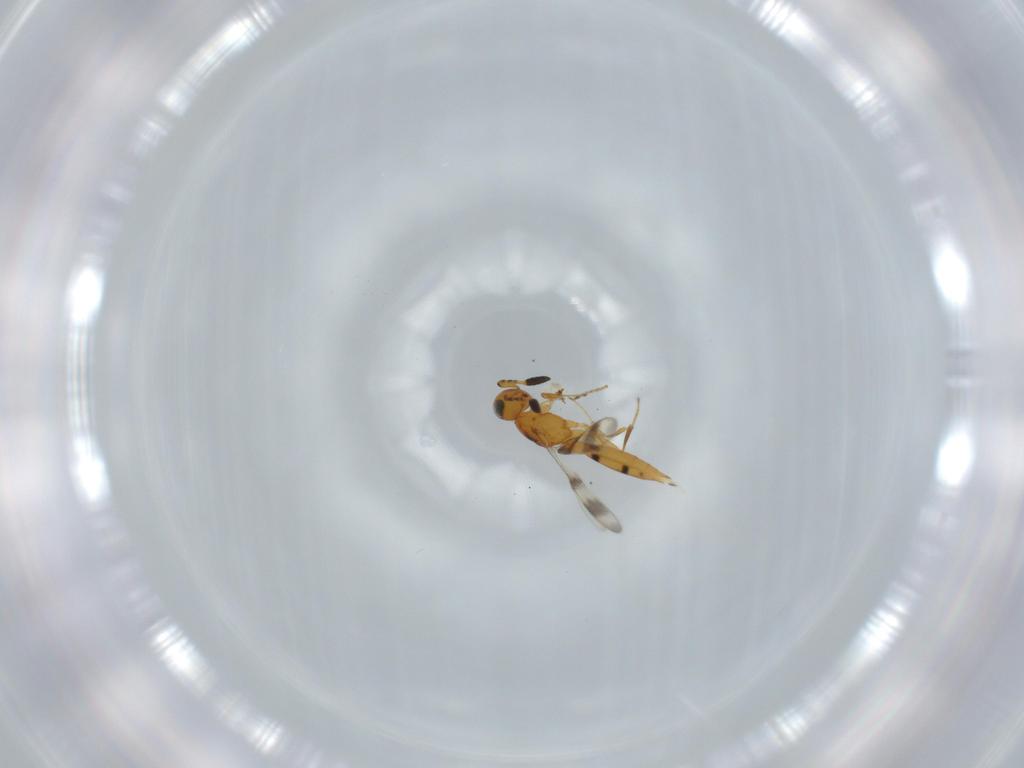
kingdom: Animalia
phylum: Arthropoda
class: Insecta
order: Hymenoptera
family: Scelionidae
